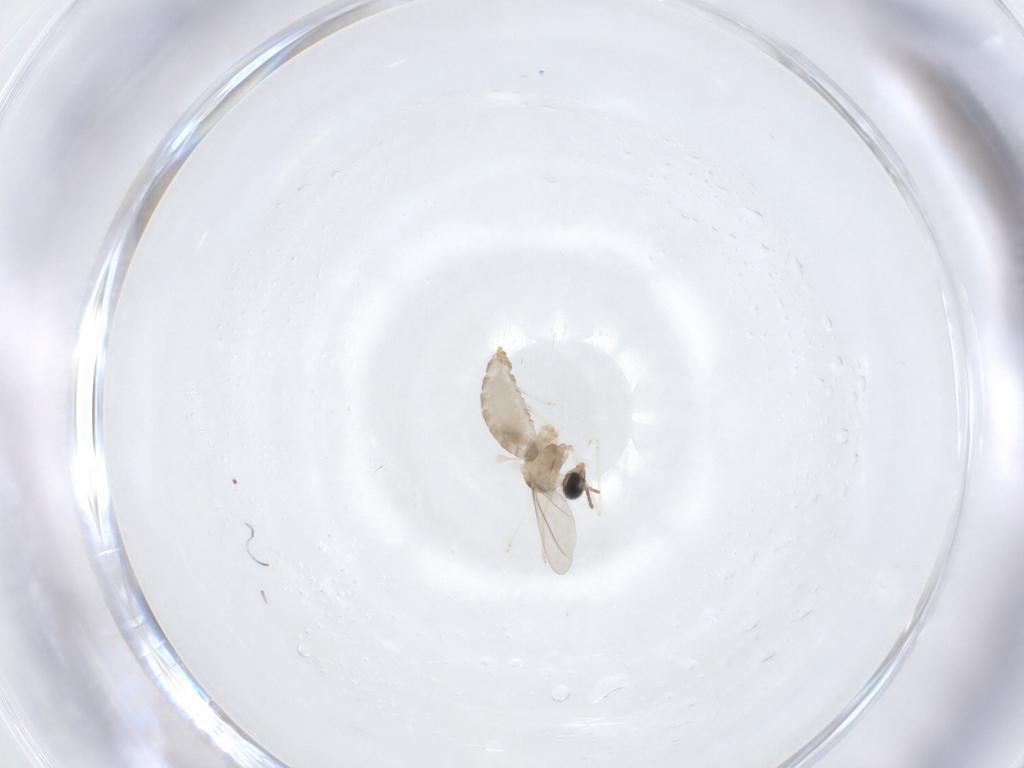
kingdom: Animalia
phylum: Arthropoda
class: Insecta
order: Diptera
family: Cecidomyiidae
